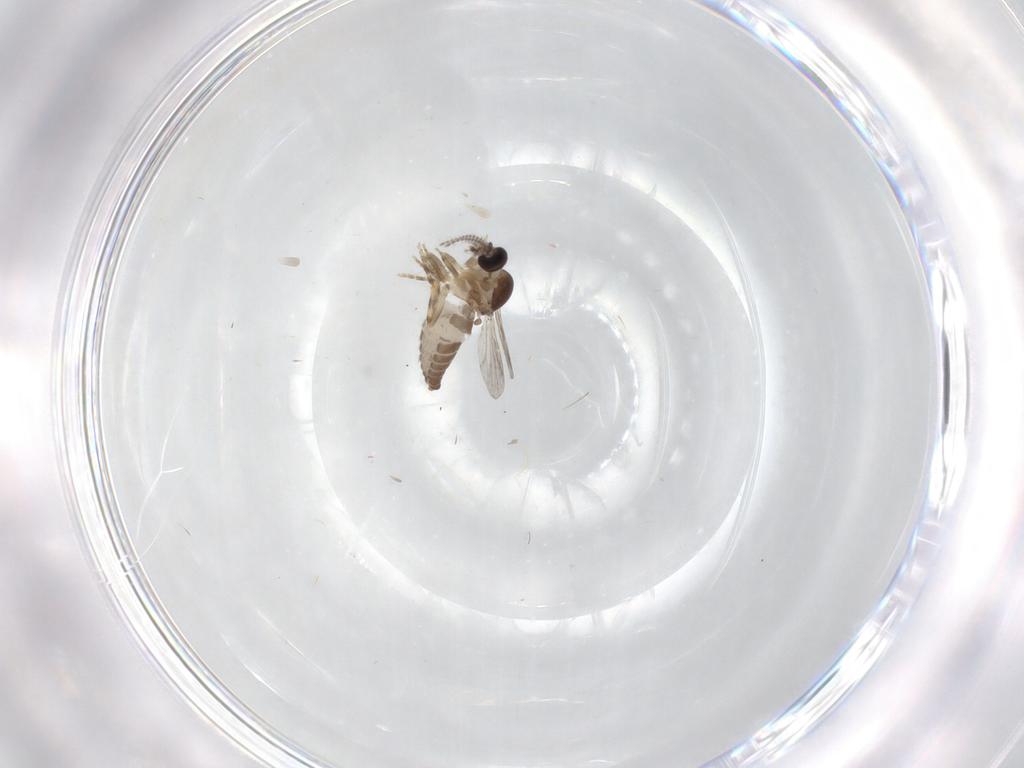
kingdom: Animalia
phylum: Arthropoda
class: Insecta
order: Diptera
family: Ceratopogonidae
